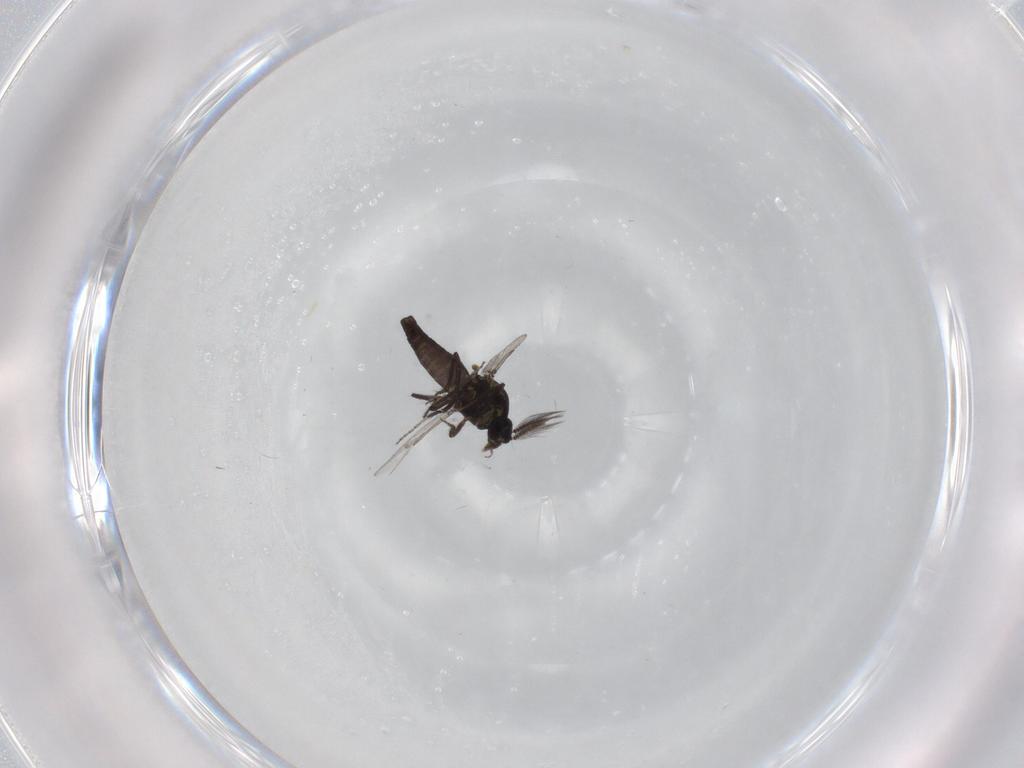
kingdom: Animalia
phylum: Arthropoda
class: Insecta
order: Diptera
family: Ceratopogonidae
